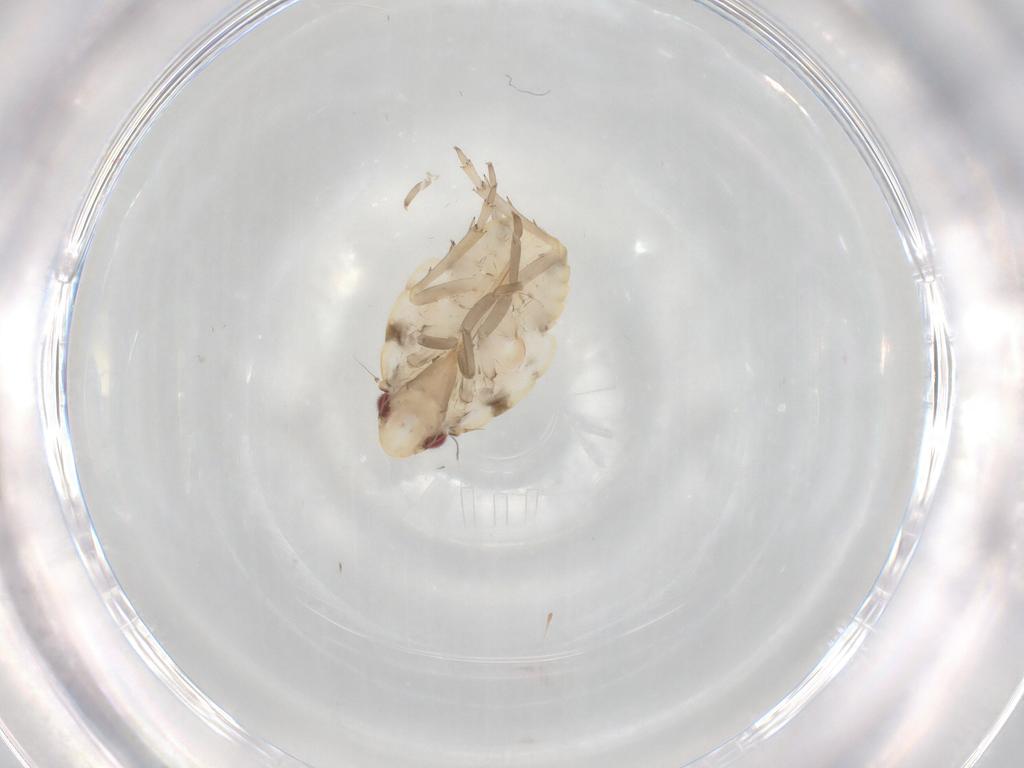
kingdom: Animalia
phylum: Arthropoda
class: Insecta
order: Hemiptera
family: Flatidae
